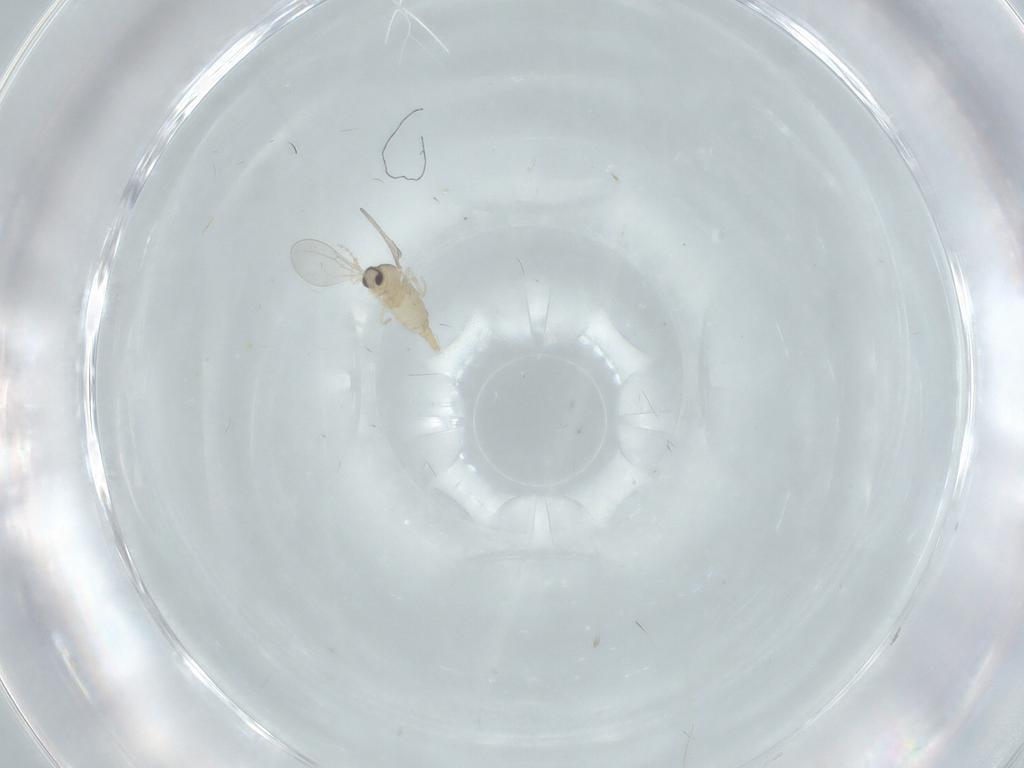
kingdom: Animalia
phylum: Arthropoda
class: Insecta
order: Diptera
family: Cecidomyiidae
